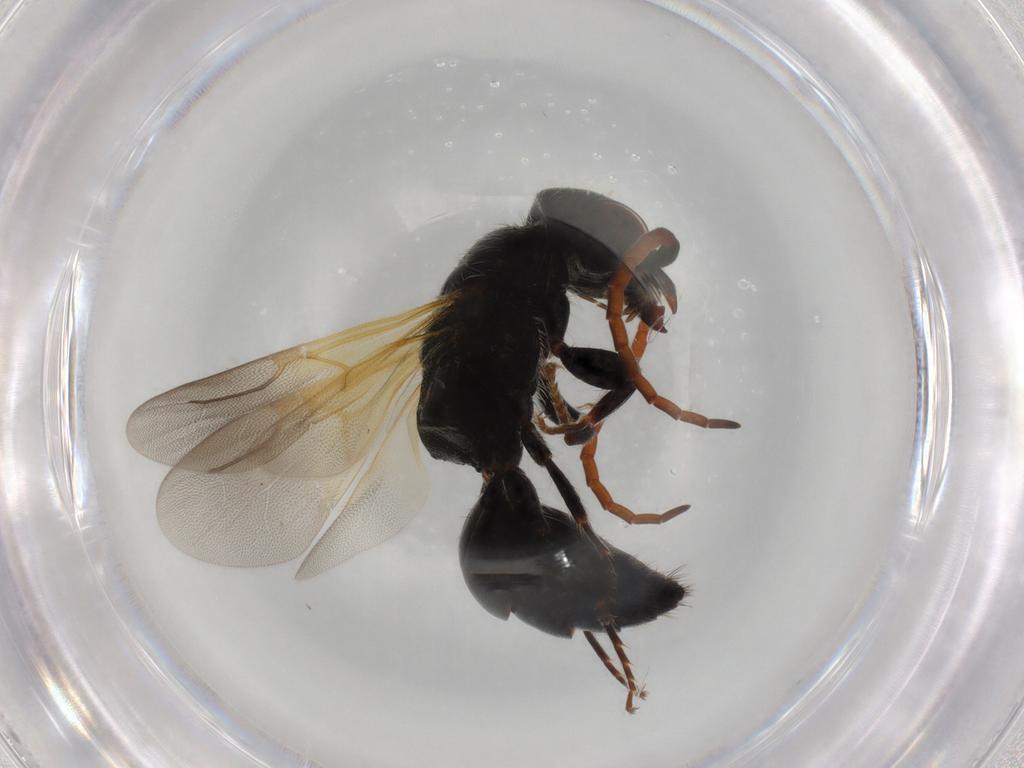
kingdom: Animalia
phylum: Arthropoda
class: Insecta
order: Hymenoptera
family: Bethylidae
